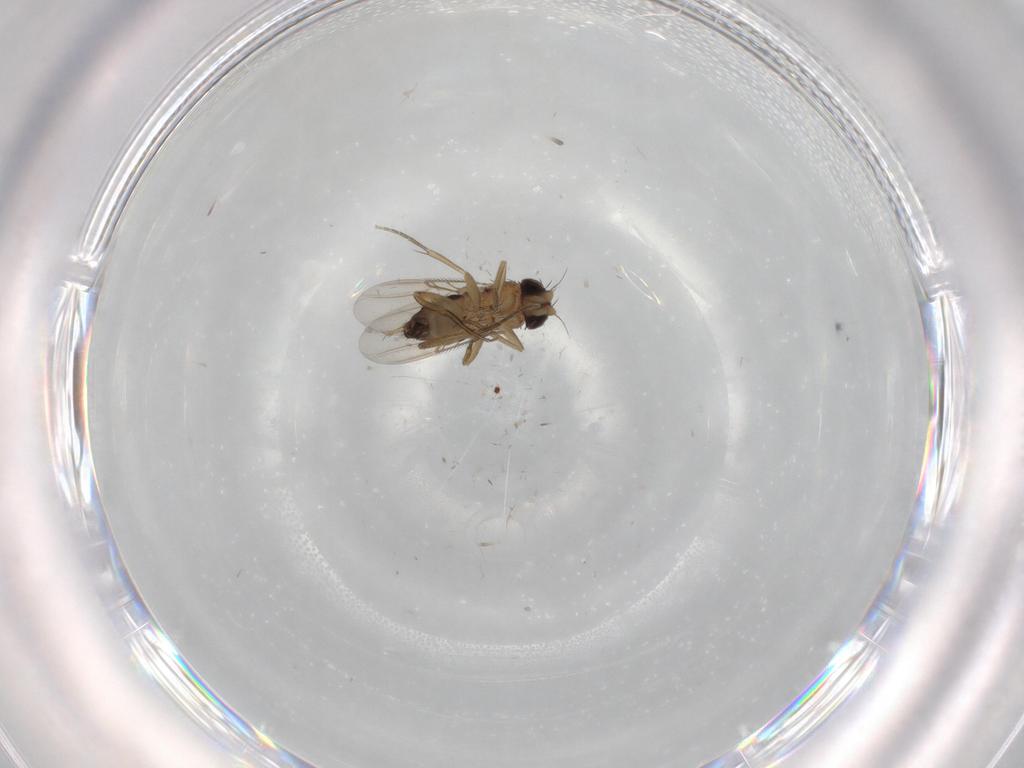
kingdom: Animalia
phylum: Arthropoda
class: Insecta
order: Diptera
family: Phoridae
